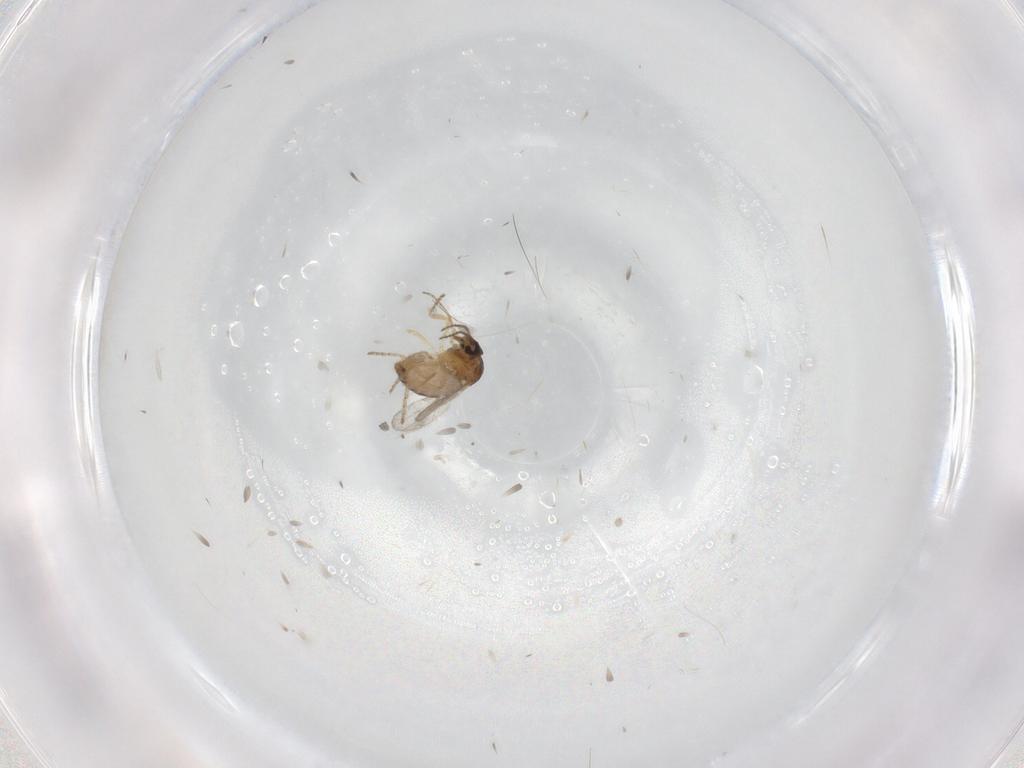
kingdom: Animalia
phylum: Arthropoda
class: Insecta
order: Diptera
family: Ceratopogonidae
